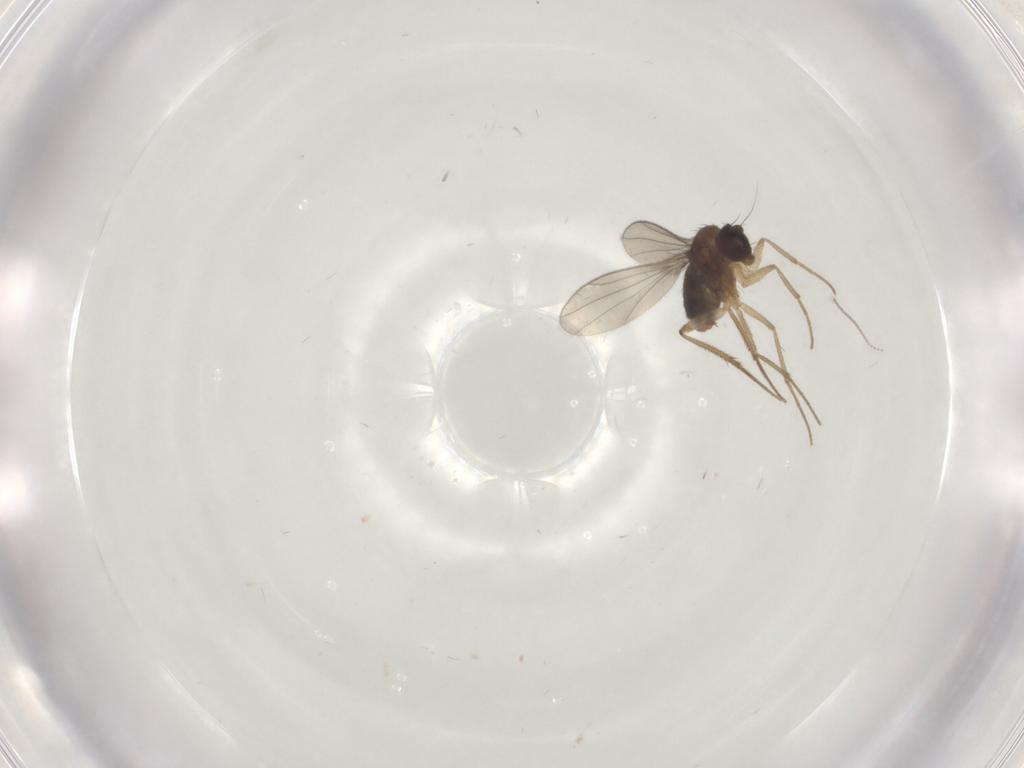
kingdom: Animalia
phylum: Arthropoda
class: Insecta
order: Diptera
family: Dolichopodidae
